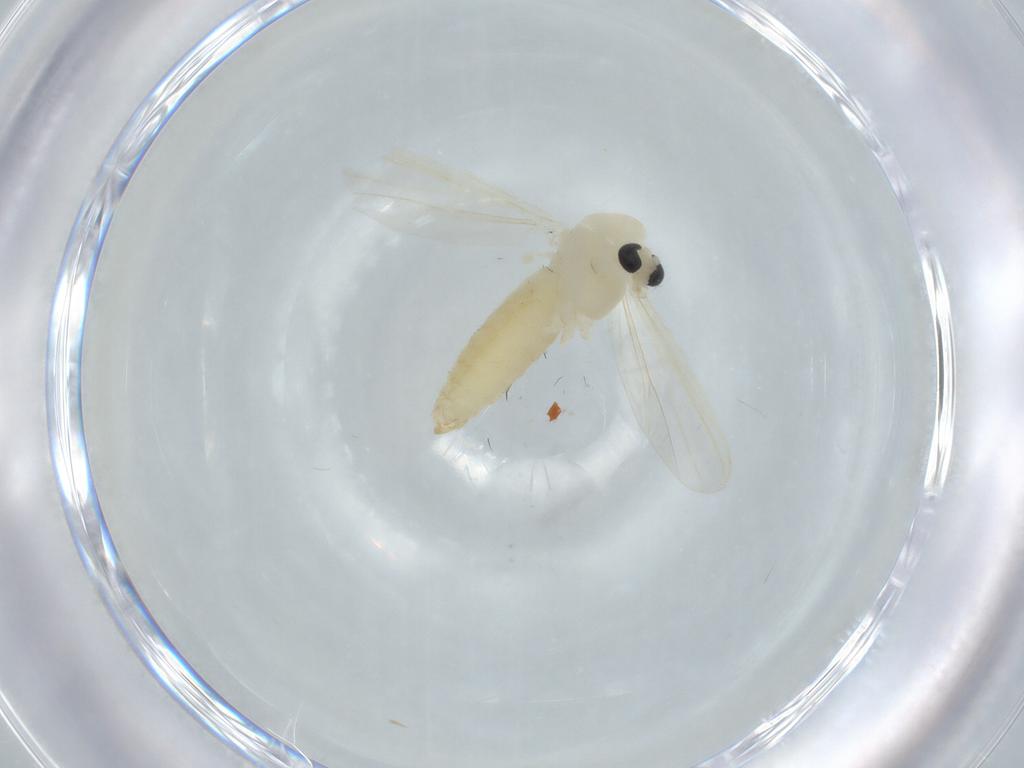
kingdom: Animalia
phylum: Arthropoda
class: Insecta
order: Diptera
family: Chironomidae
